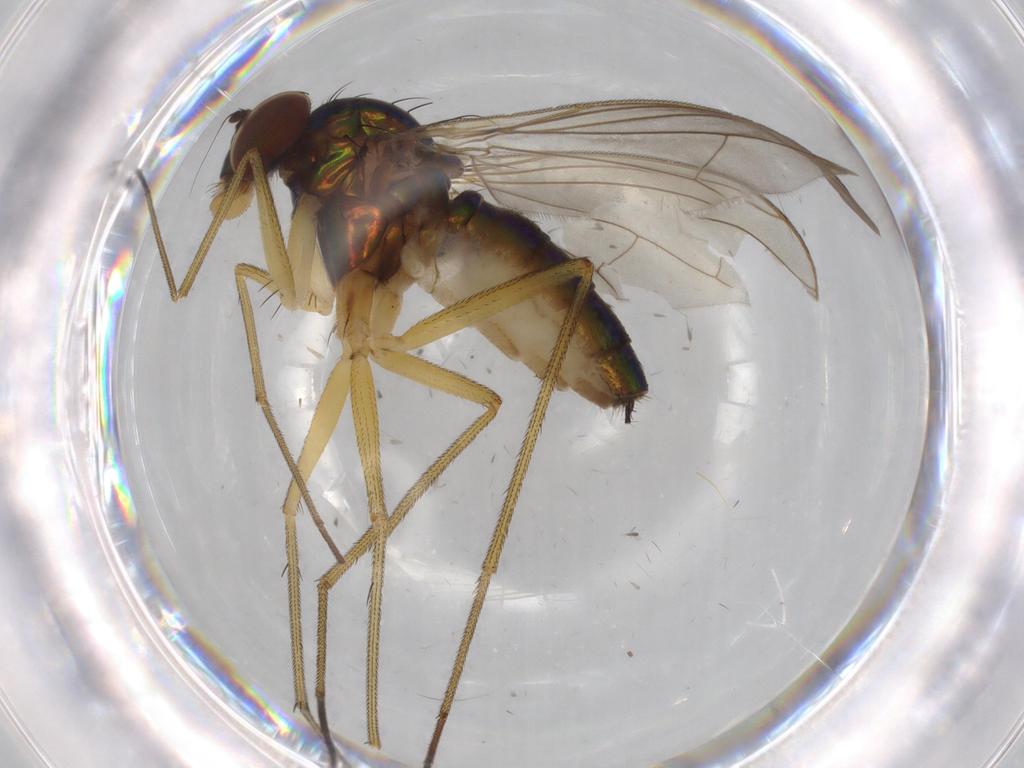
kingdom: Animalia
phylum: Arthropoda
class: Insecta
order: Diptera
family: Dolichopodidae
